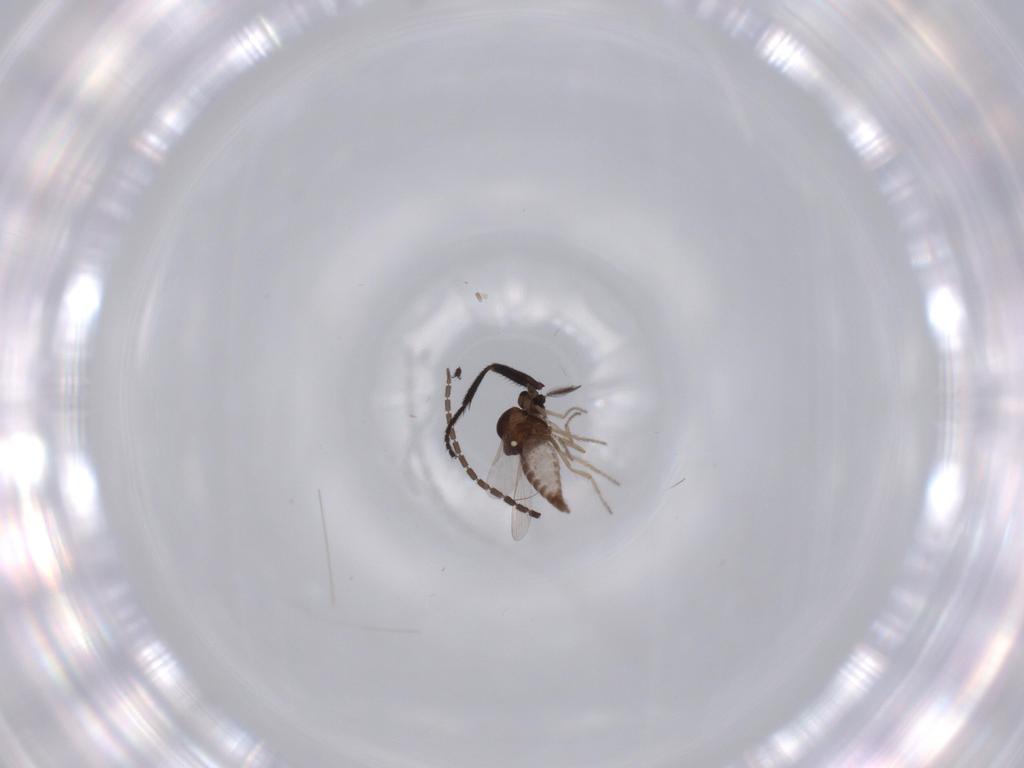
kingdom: Animalia
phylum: Arthropoda
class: Insecta
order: Diptera
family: Ceratopogonidae
